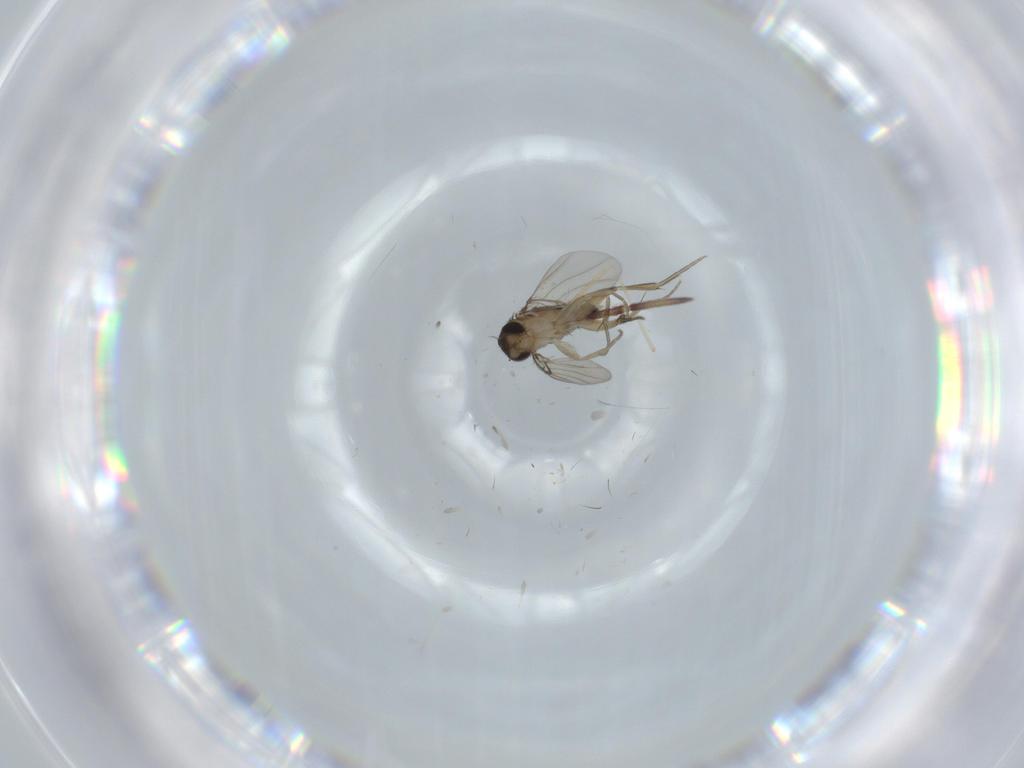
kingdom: Animalia
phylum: Arthropoda
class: Insecta
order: Diptera
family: Phoridae
